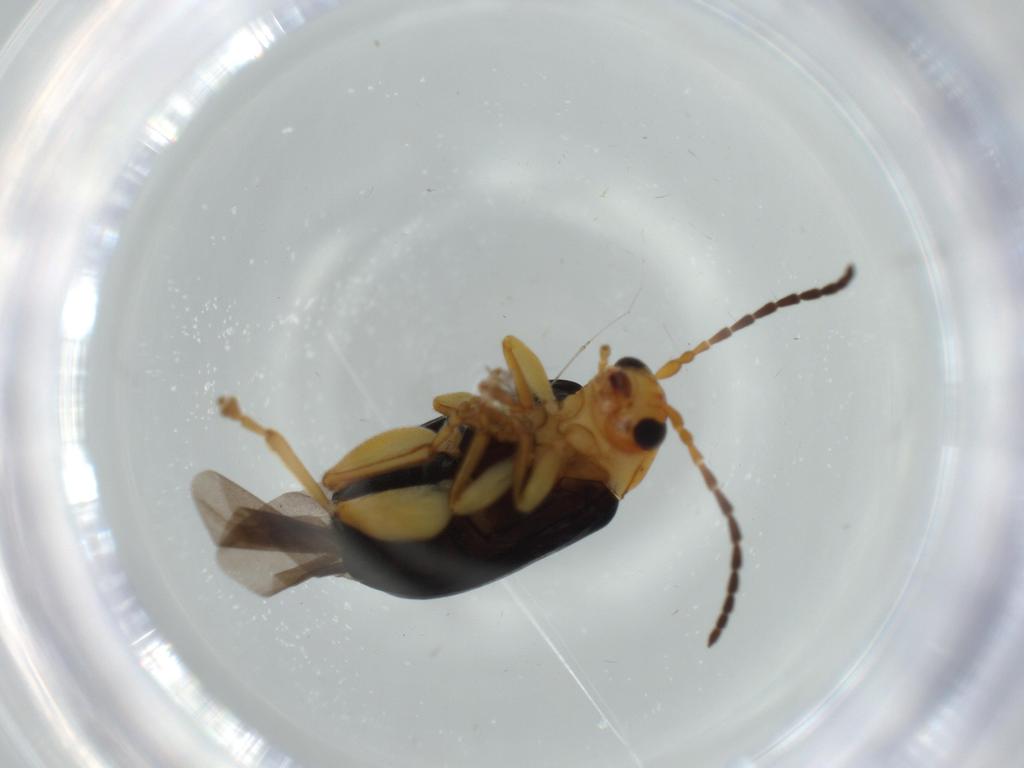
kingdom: Animalia
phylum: Arthropoda
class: Insecta
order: Coleoptera
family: Chrysomelidae
